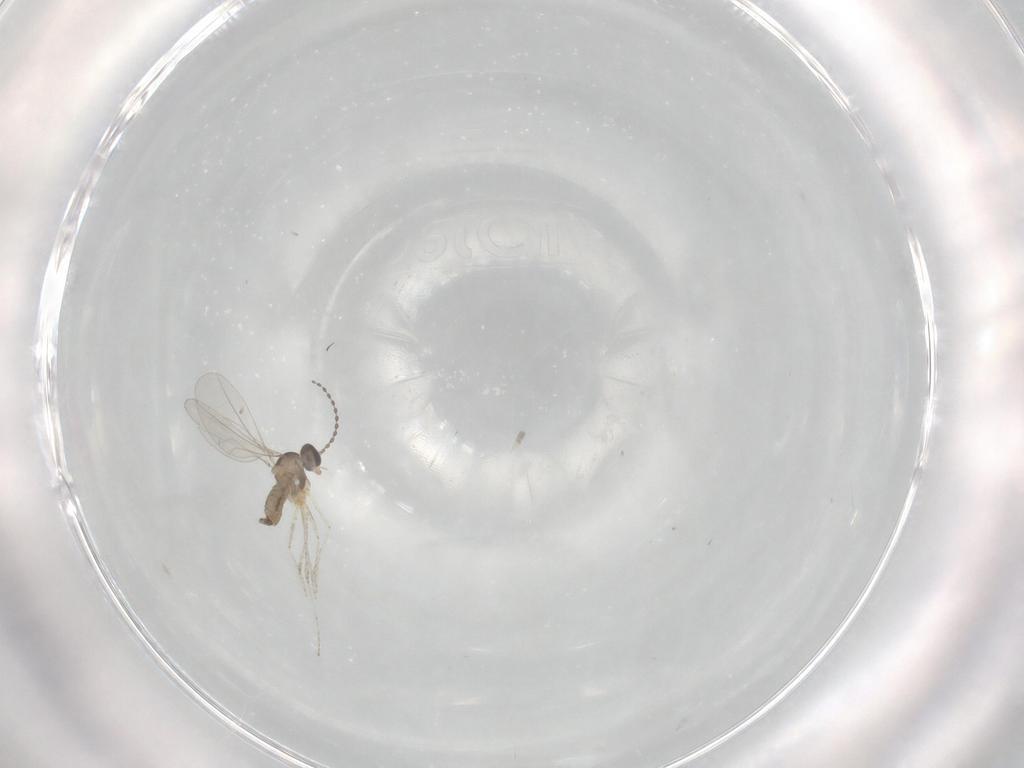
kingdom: Animalia
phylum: Arthropoda
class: Insecta
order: Diptera
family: Cecidomyiidae
